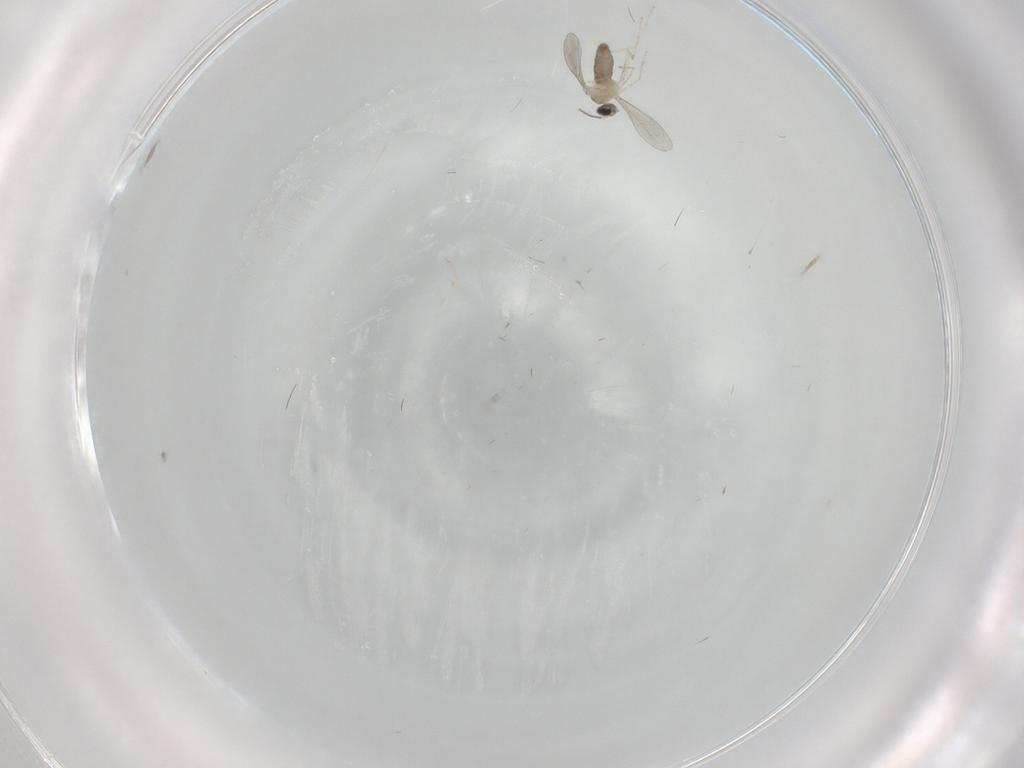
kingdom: Animalia
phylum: Arthropoda
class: Insecta
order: Diptera
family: Cecidomyiidae
